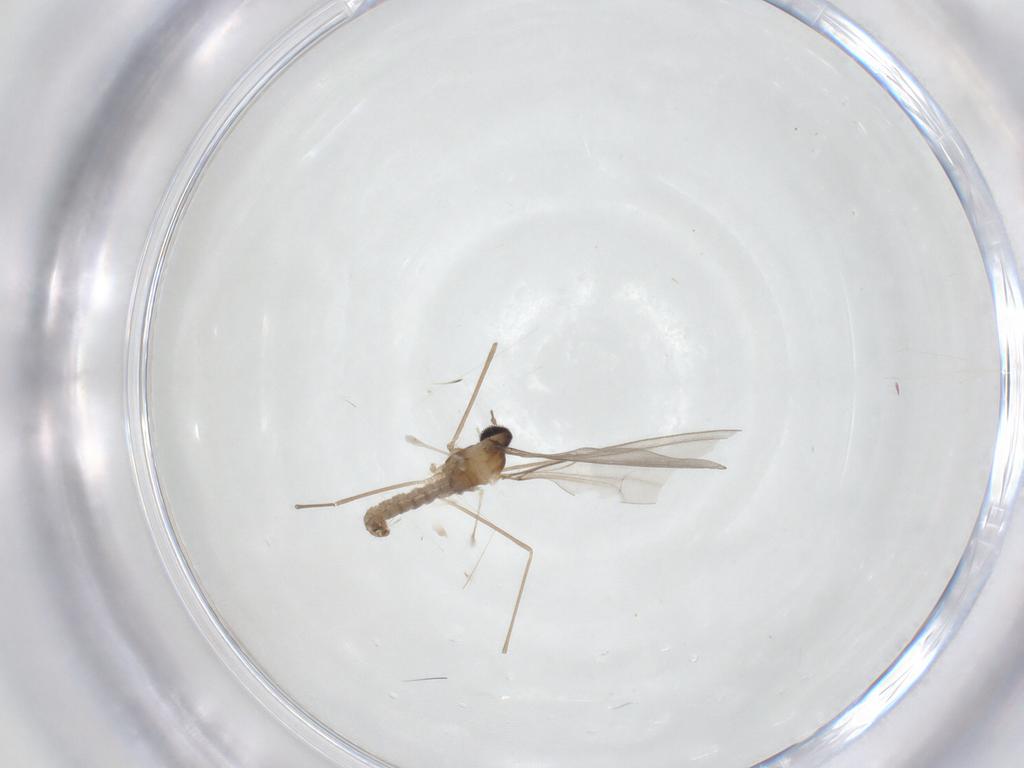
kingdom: Animalia
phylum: Arthropoda
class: Insecta
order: Diptera
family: Cecidomyiidae
